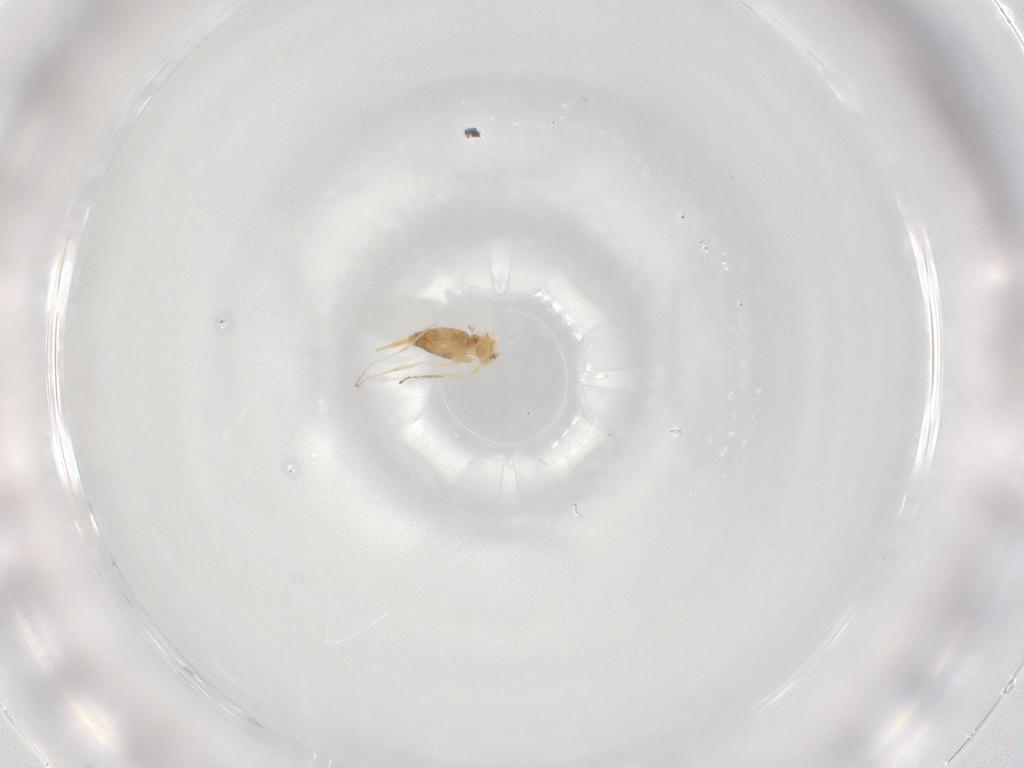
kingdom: Animalia
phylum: Arthropoda
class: Insecta
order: Diptera
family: Cecidomyiidae
